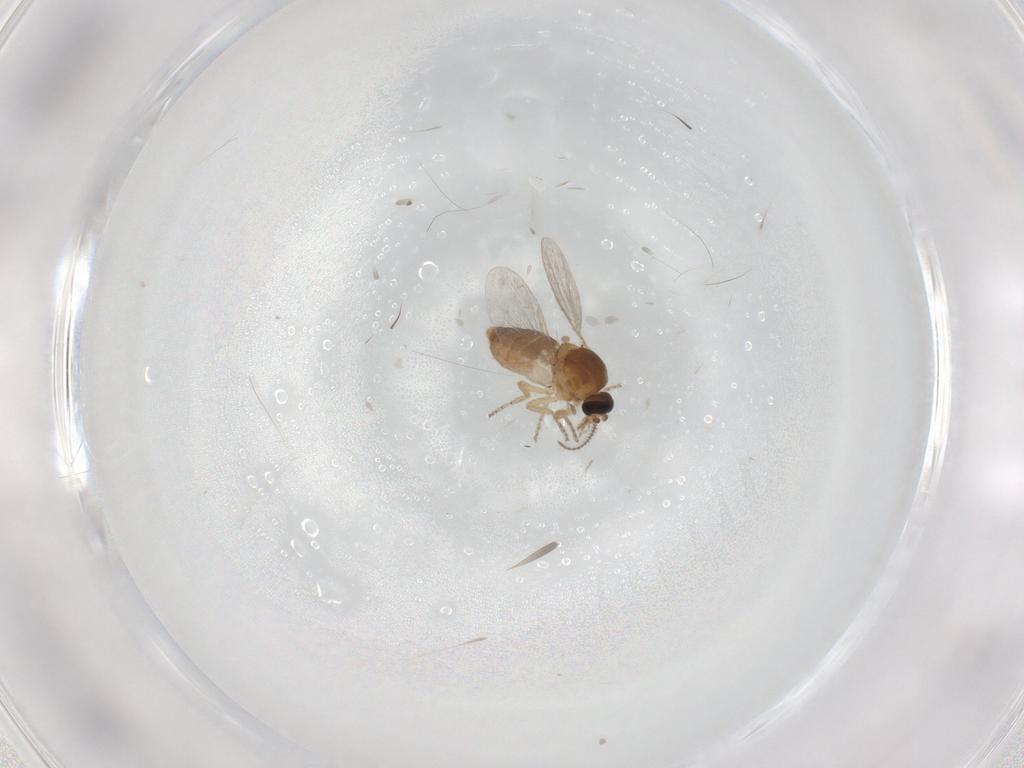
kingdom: Animalia
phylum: Arthropoda
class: Insecta
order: Diptera
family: Ceratopogonidae
